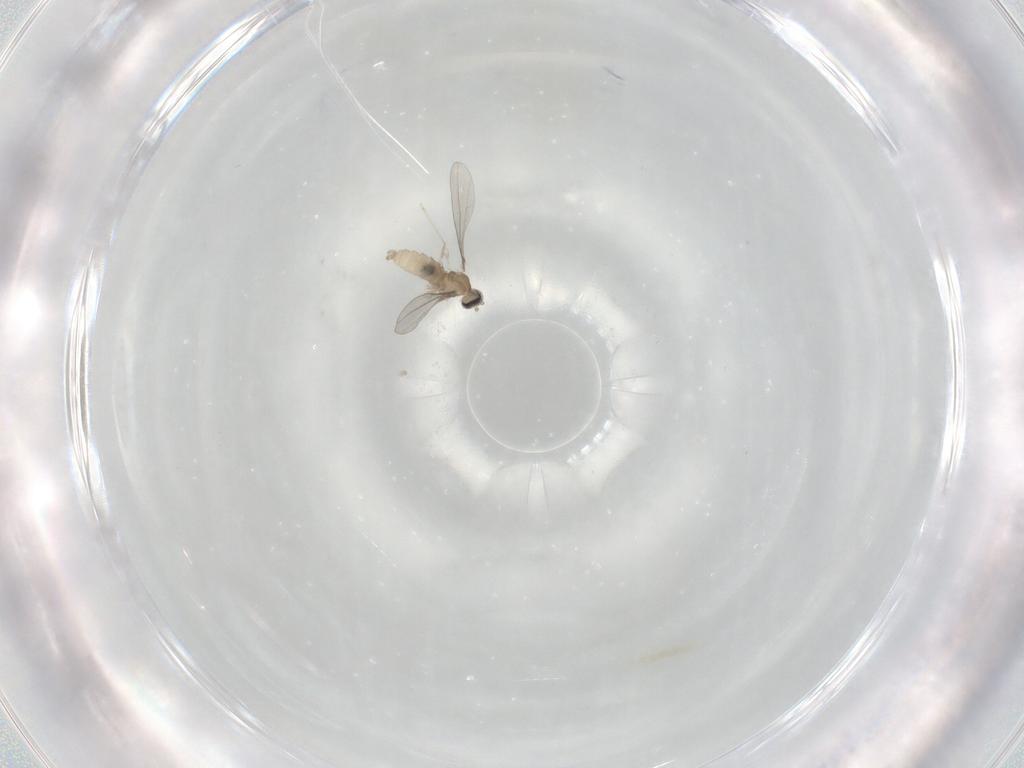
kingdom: Animalia
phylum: Arthropoda
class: Insecta
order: Diptera
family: Cecidomyiidae
